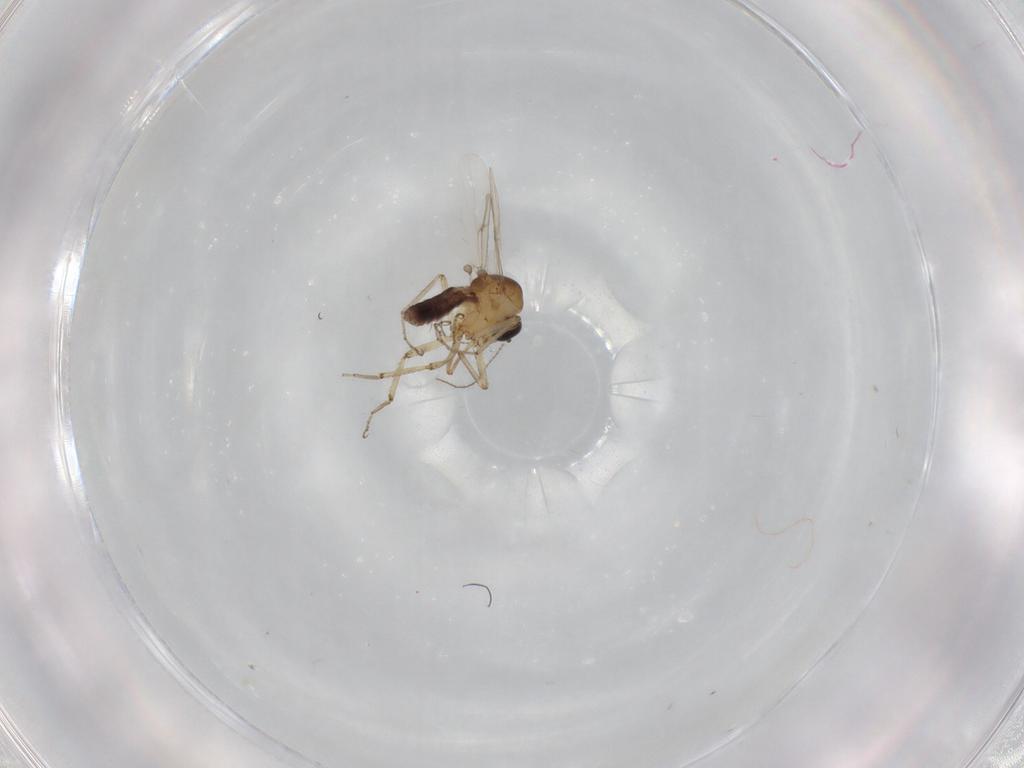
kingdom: Animalia
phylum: Arthropoda
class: Insecta
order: Diptera
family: Ceratopogonidae
